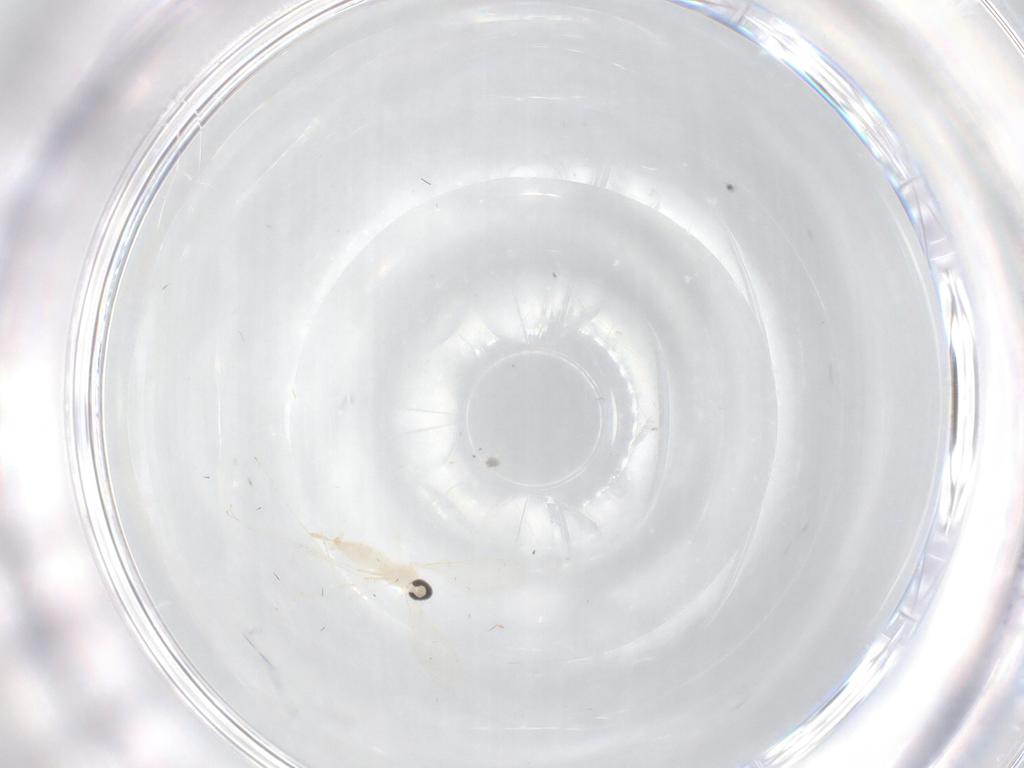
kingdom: Animalia
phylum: Arthropoda
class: Insecta
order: Diptera
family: Cecidomyiidae
